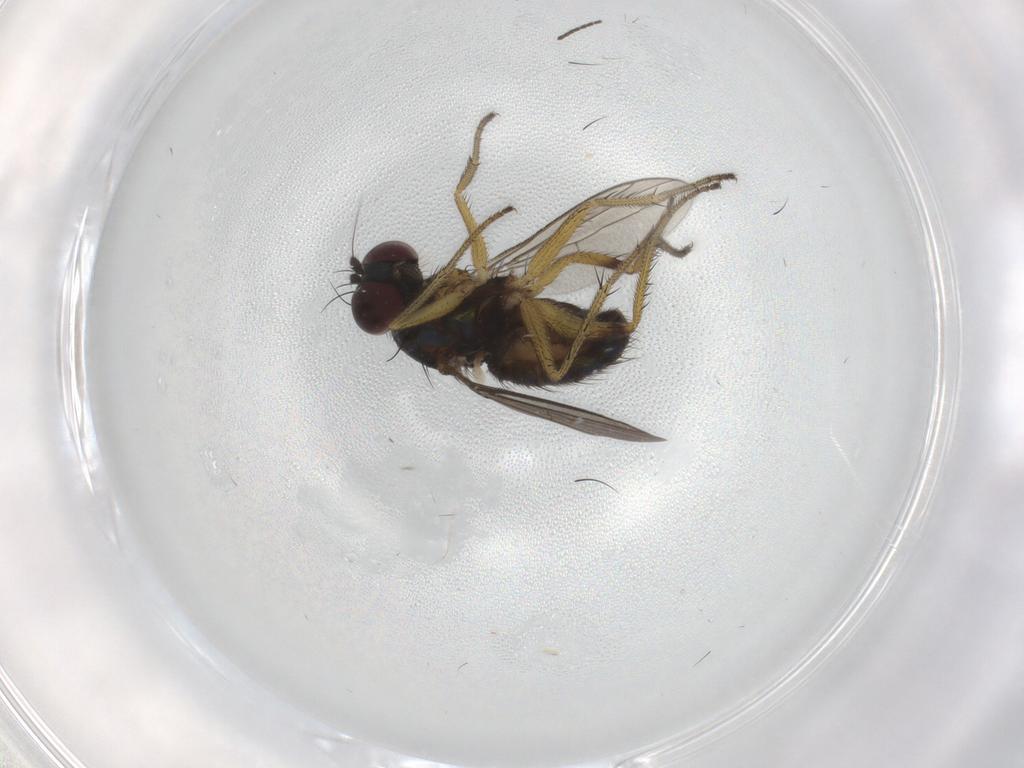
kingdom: Animalia
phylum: Arthropoda
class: Insecta
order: Diptera
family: Dolichopodidae
